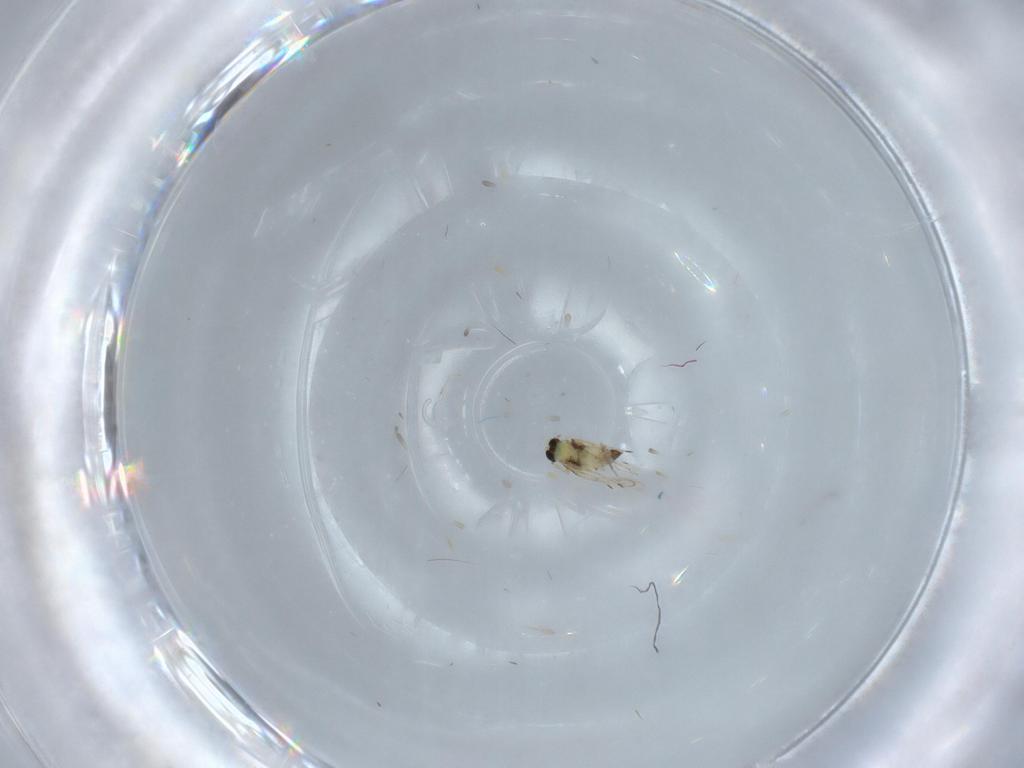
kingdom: Animalia
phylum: Arthropoda
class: Insecta
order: Hymenoptera
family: Trichogrammatidae
